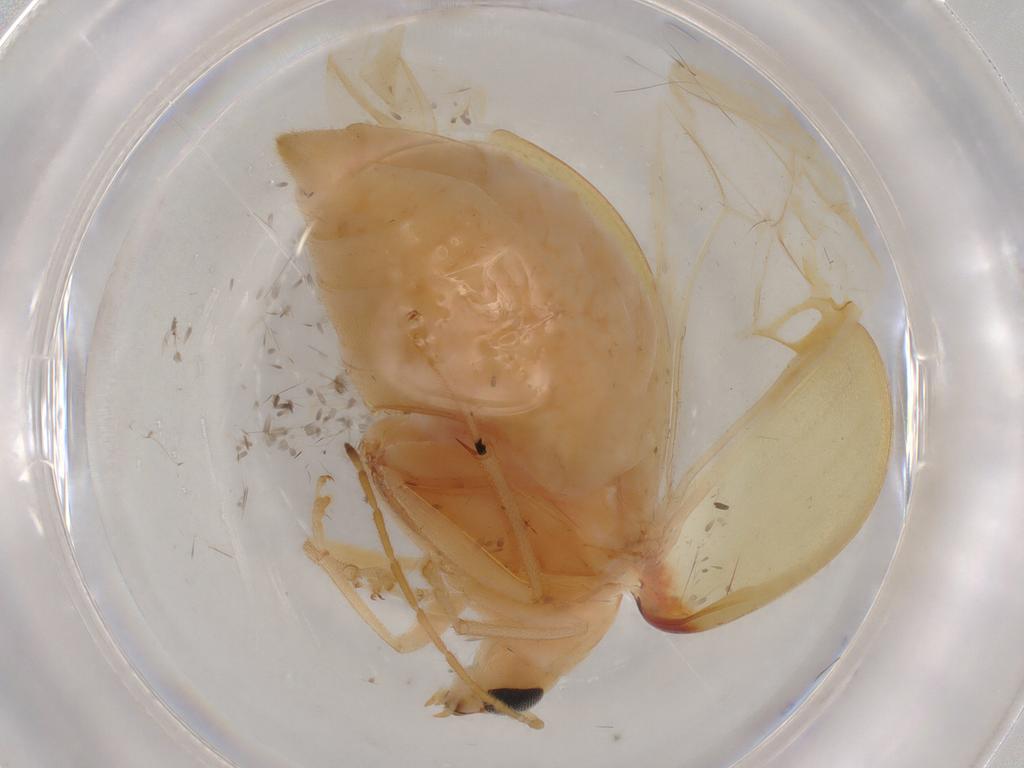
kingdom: Animalia
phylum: Arthropoda
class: Insecta
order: Coleoptera
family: Chrysomelidae
